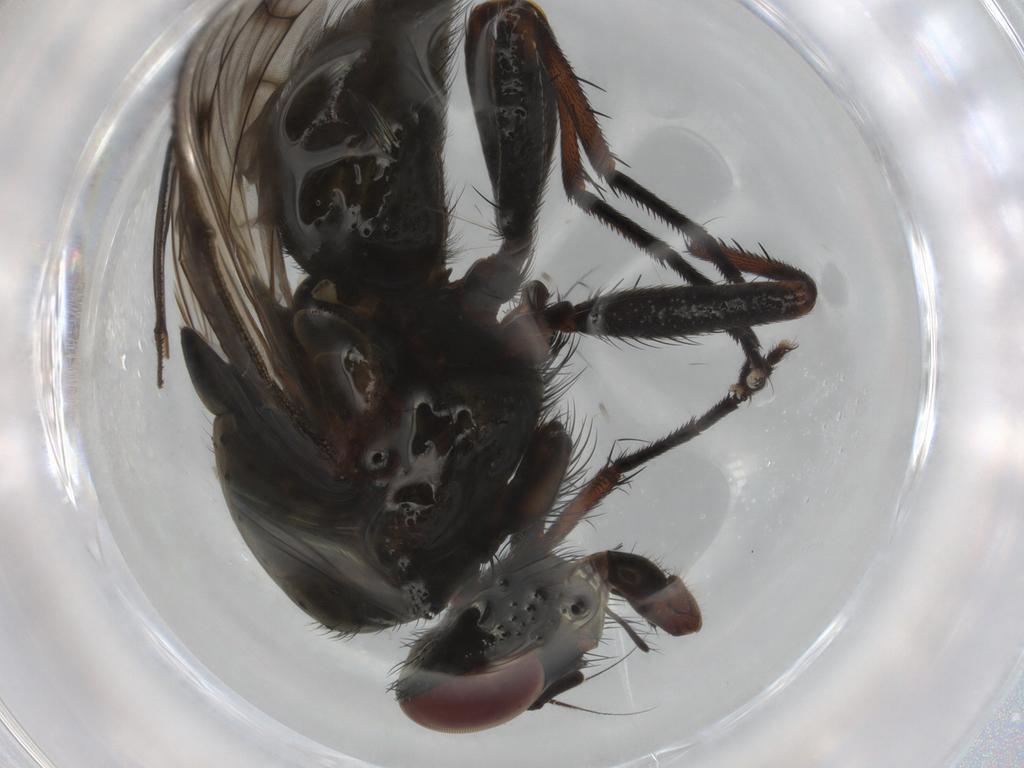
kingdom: Animalia
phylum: Arthropoda
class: Insecta
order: Diptera
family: Muscidae
